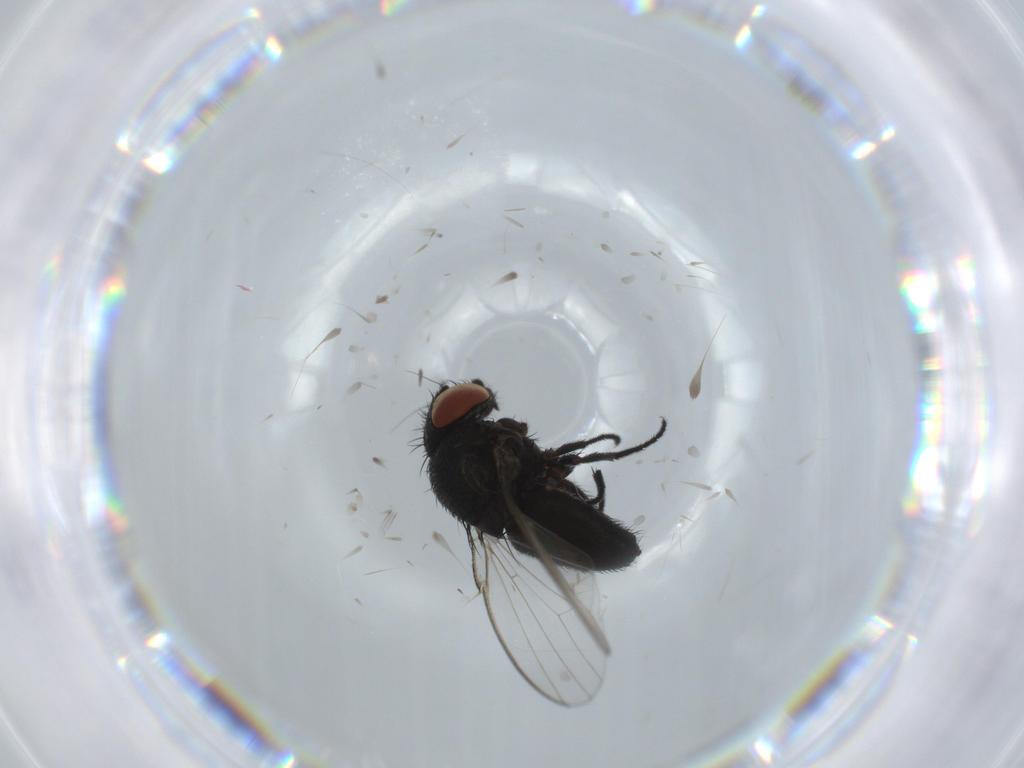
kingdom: Animalia
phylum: Arthropoda
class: Insecta
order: Diptera
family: Milichiidae
